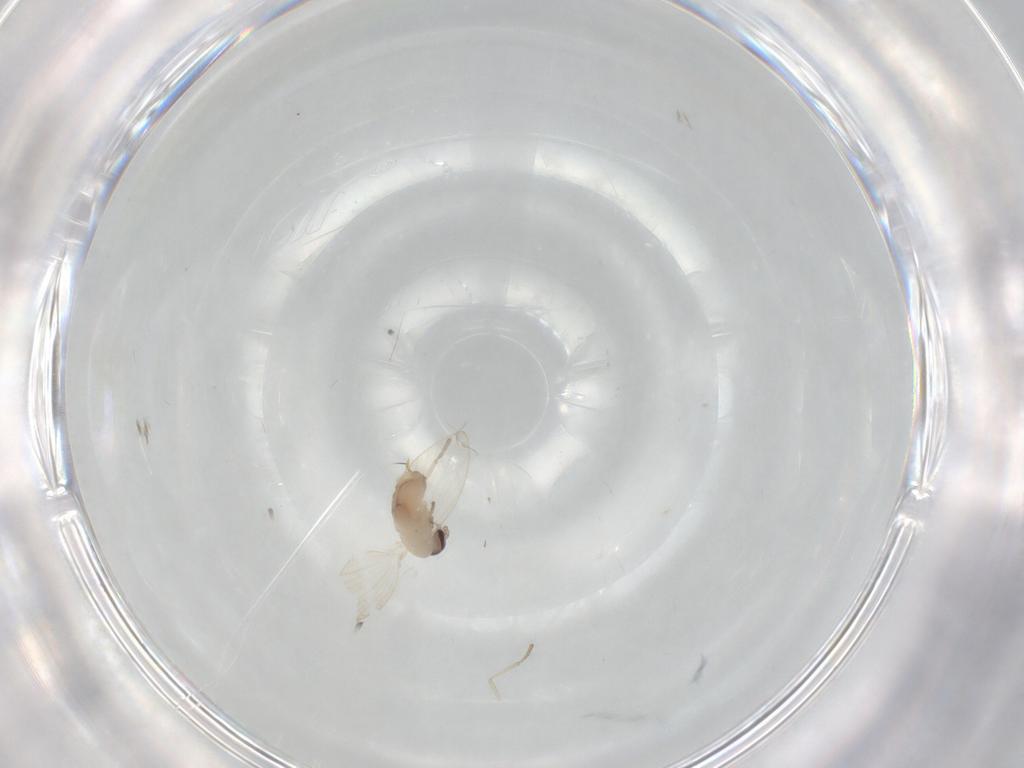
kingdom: Animalia
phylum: Arthropoda
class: Insecta
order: Diptera
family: Psychodidae
